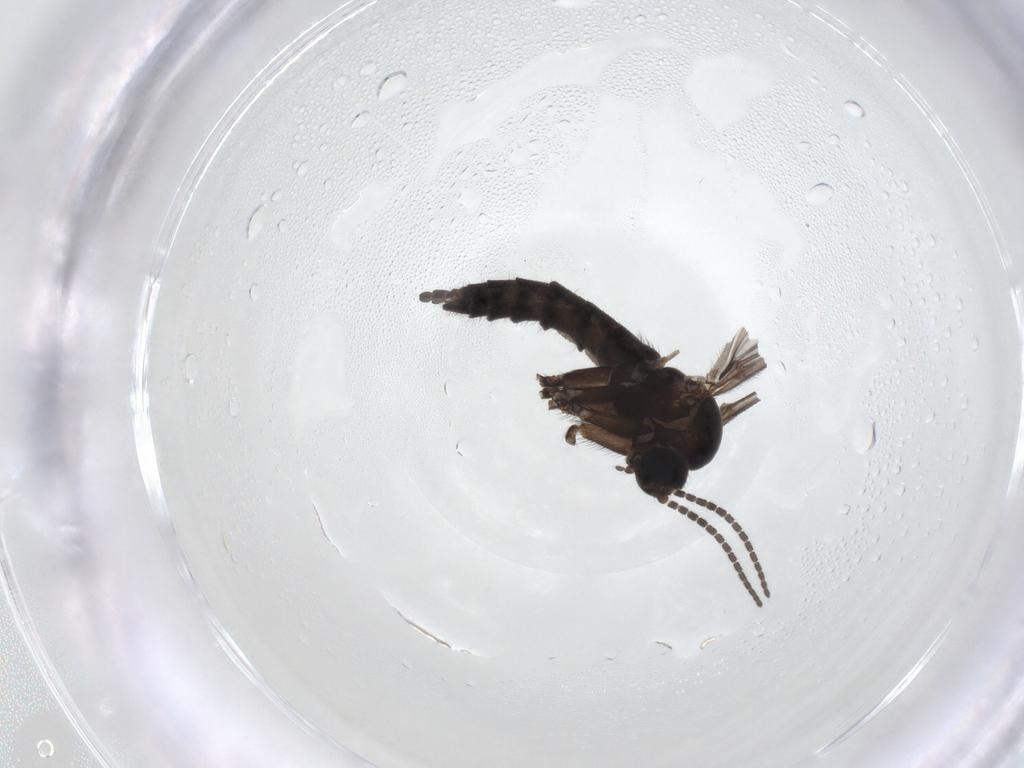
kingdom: Animalia
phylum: Arthropoda
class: Insecta
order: Diptera
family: Sciaridae
